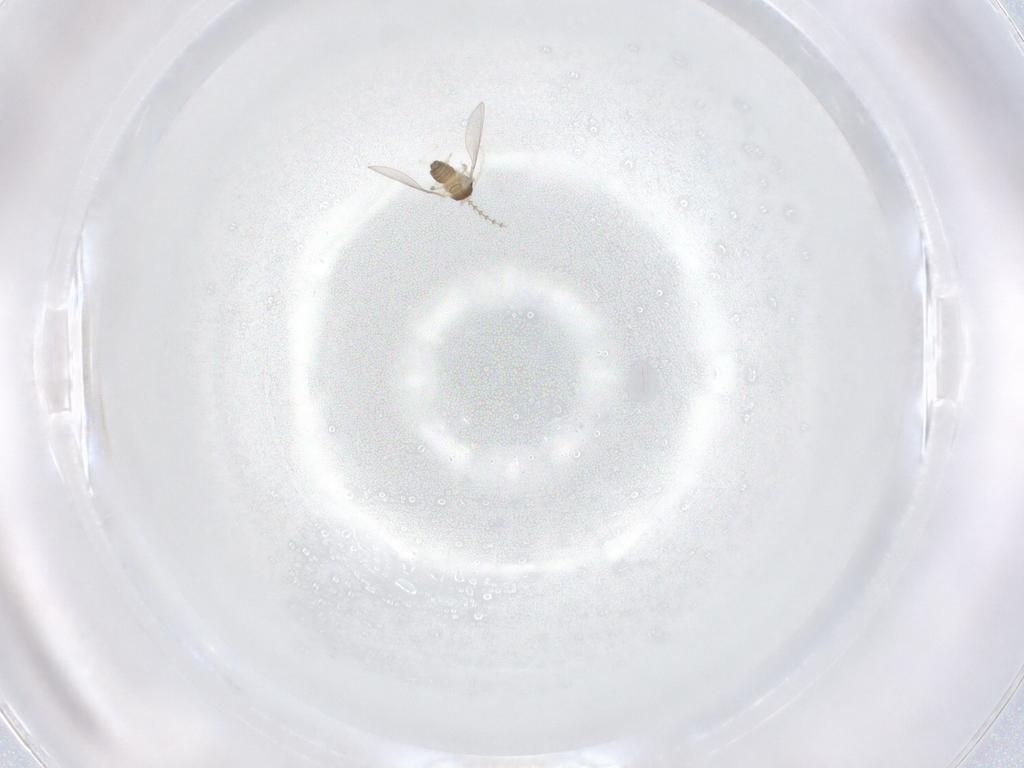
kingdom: Animalia
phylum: Arthropoda
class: Insecta
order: Diptera
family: Cecidomyiidae
